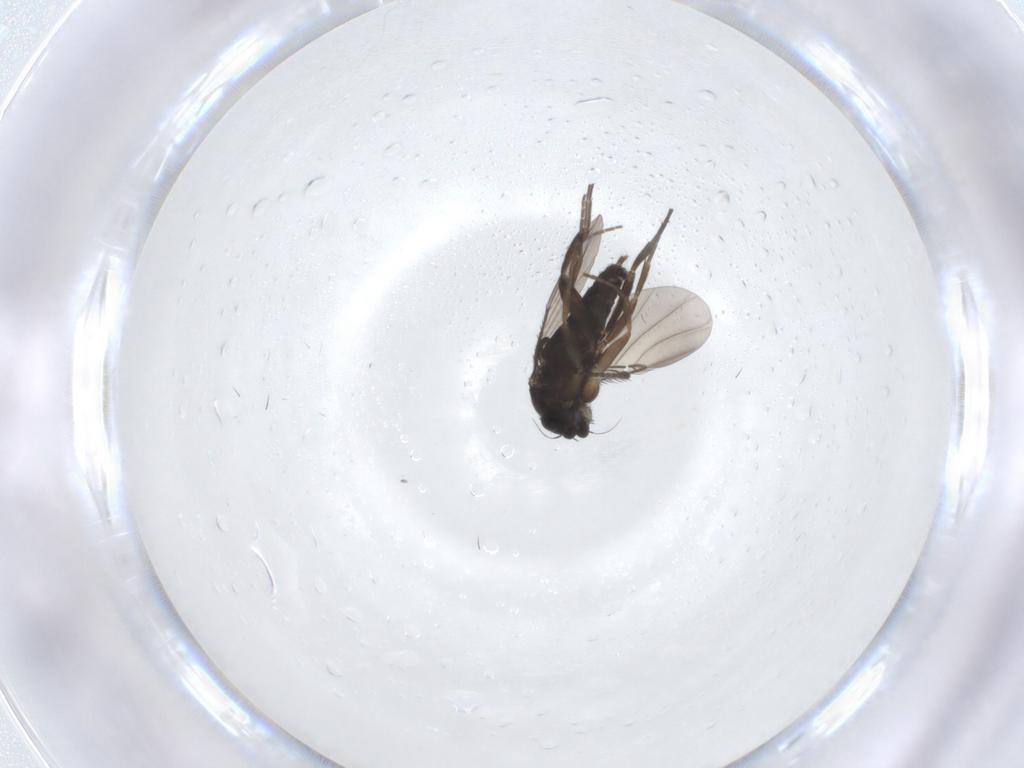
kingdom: Animalia
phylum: Arthropoda
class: Insecta
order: Diptera
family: Phoridae
